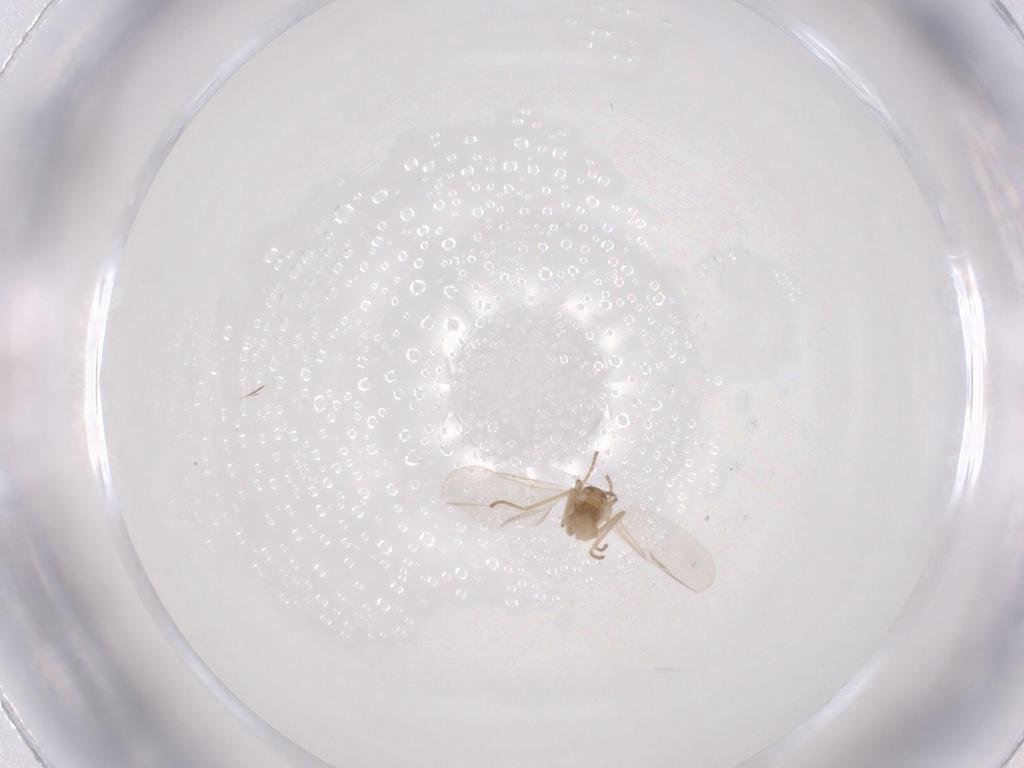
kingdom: Animalia
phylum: Arthropoda
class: Insecta
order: Diptera
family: Cecidomyiidae
